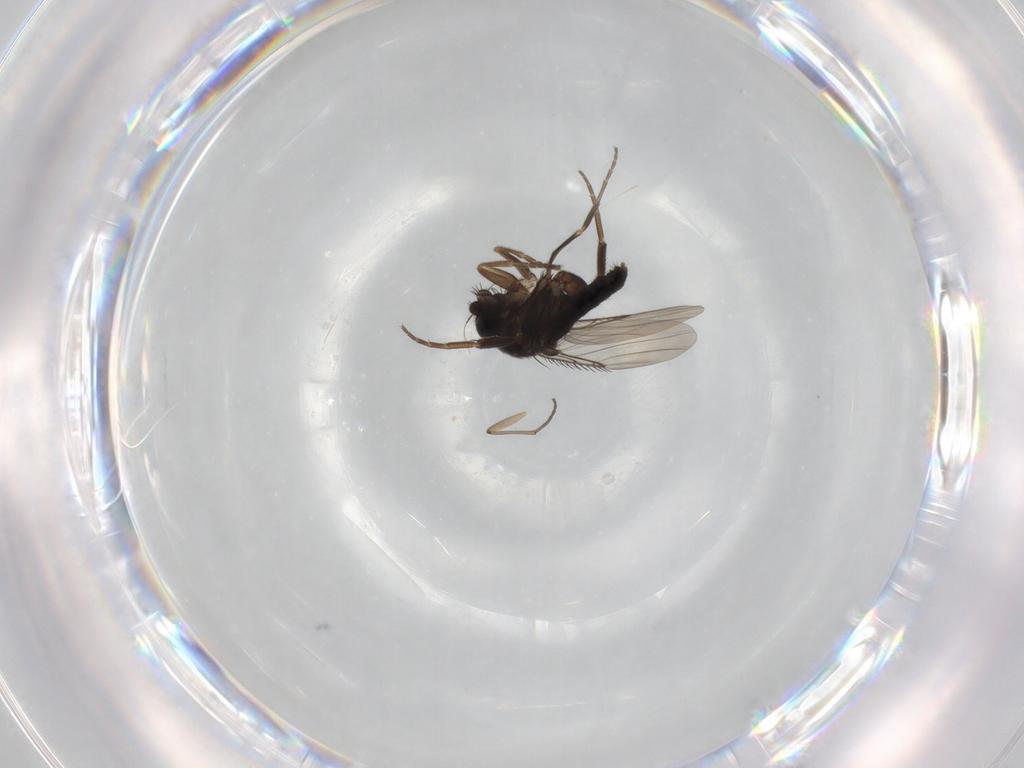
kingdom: Animalia
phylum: Arthropoda
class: Insecta
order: Diptera
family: Phoridae
